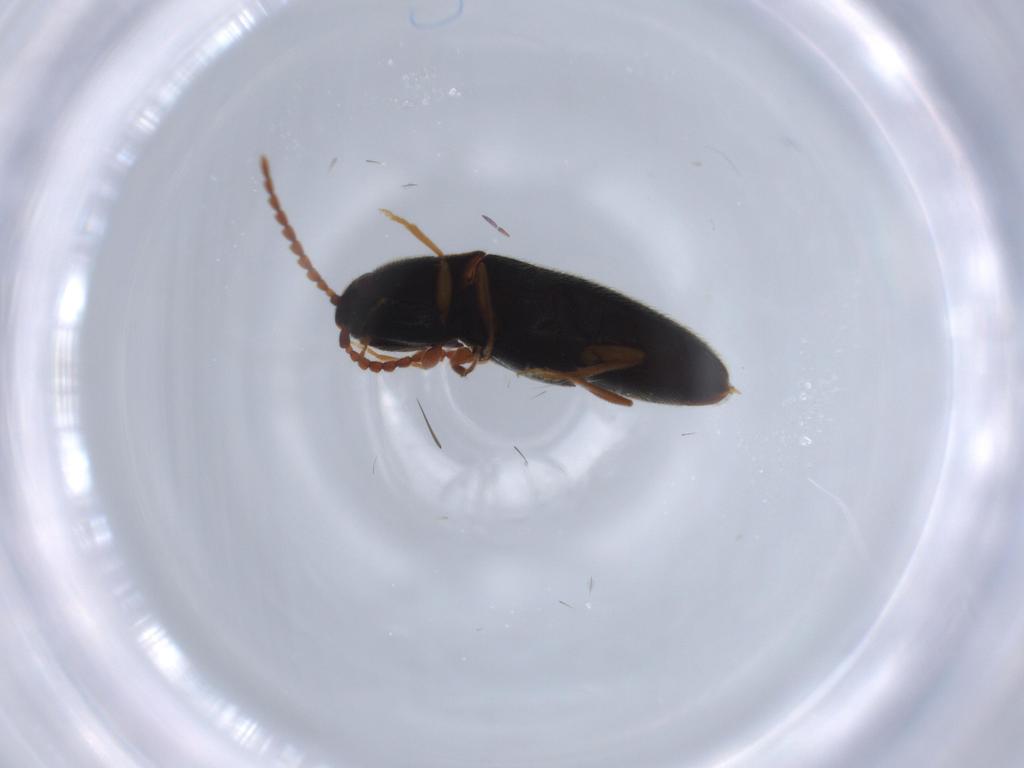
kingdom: Animalia
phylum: Arthropoda
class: Insecta
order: Coleoptera
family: Elateridae
